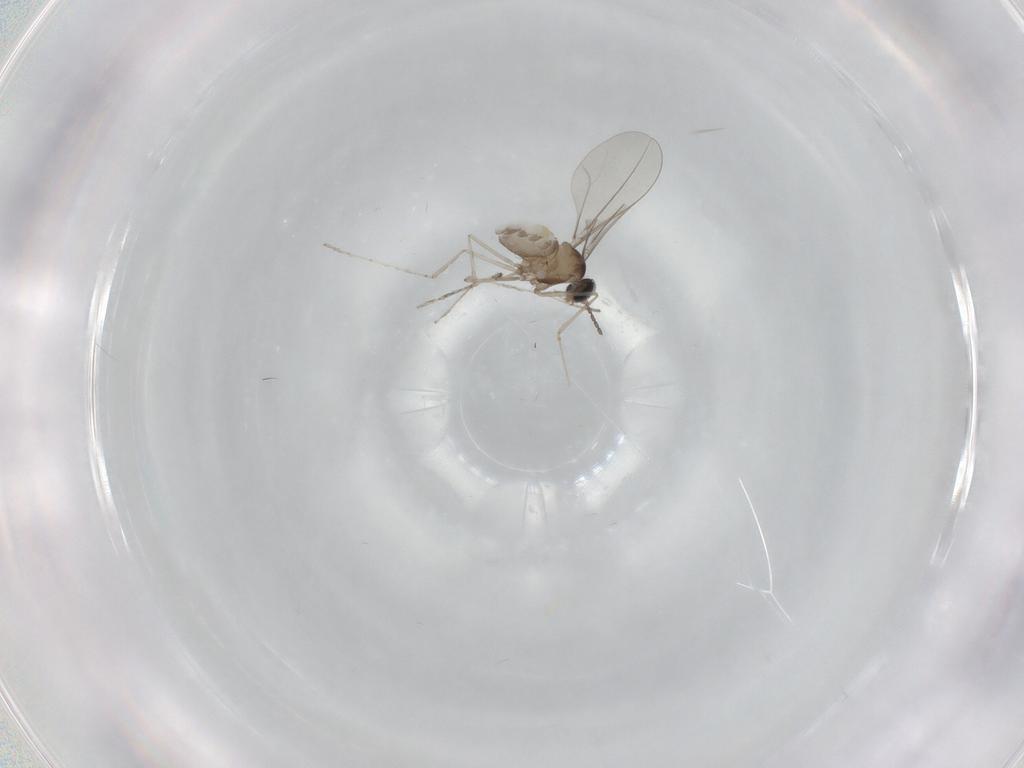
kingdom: Animalia
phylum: Arthropoda
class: Insecta
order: Diptera
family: Cecidomyiidae
